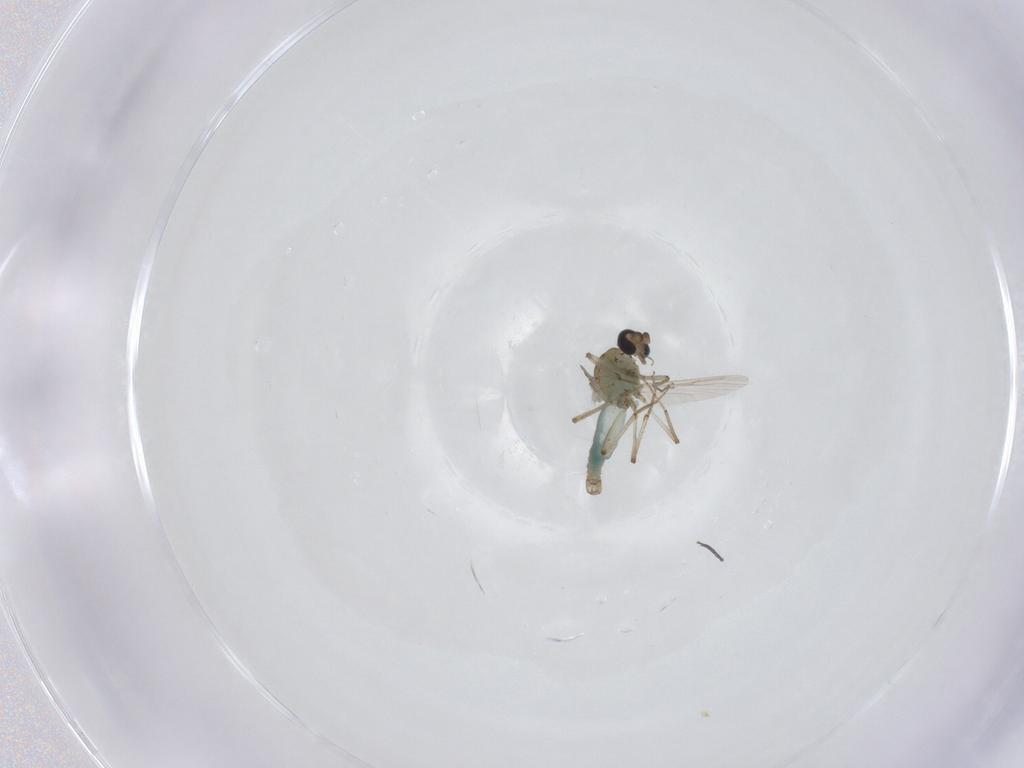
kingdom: Animalia
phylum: Arthropoda
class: Insecta
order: Diptera
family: Ceratopogonidae
